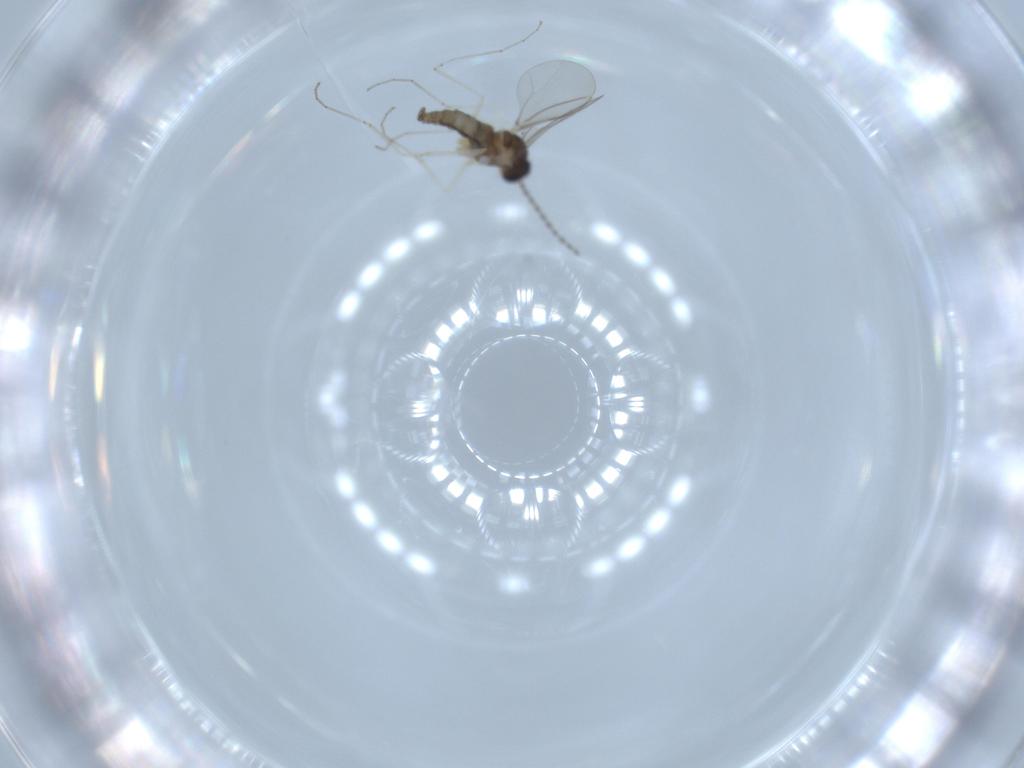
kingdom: Animalia
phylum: Arthropoda
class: Insecta
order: Diptera
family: Cecidomyiidae
